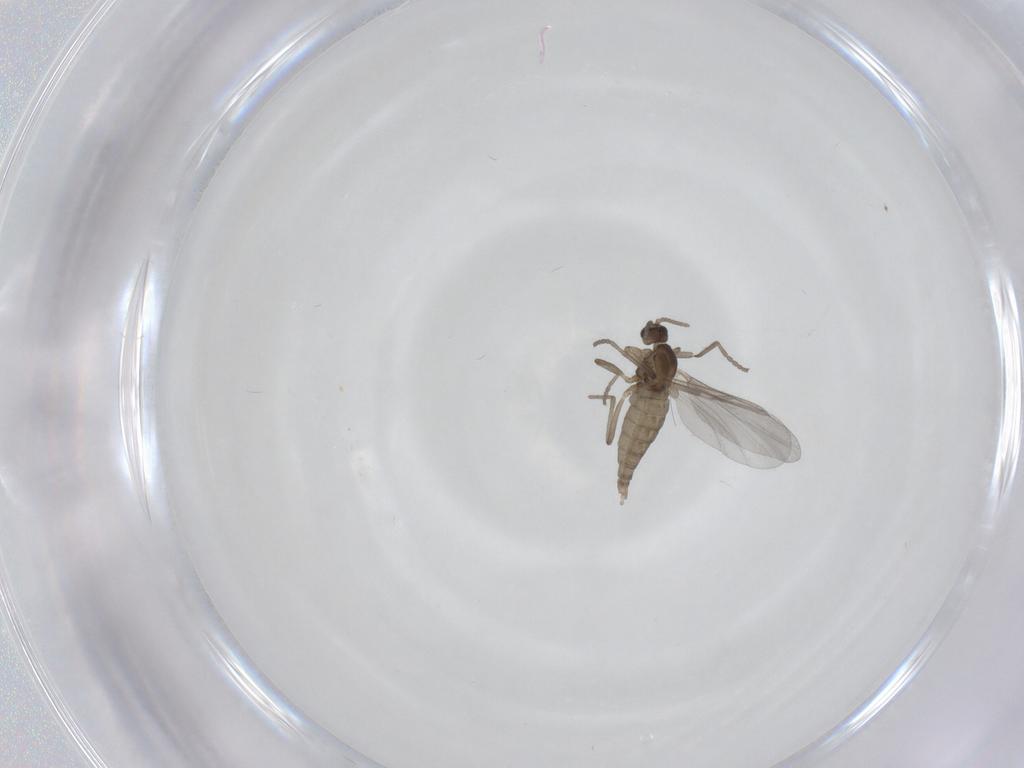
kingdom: Animalia
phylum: Arthropoda
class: Insecta
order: Diptera
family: Cecidomyiidae
